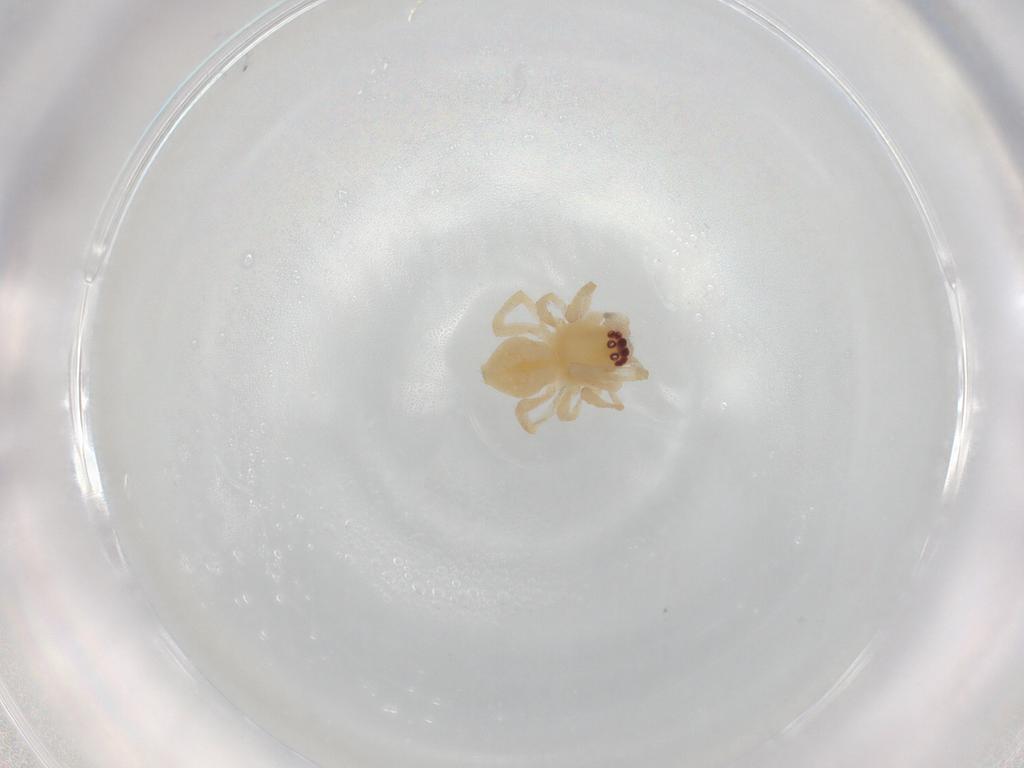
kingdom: Animalia
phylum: Arthropoda
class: Arachnida
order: Araneae
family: Cheiracanthiidae
